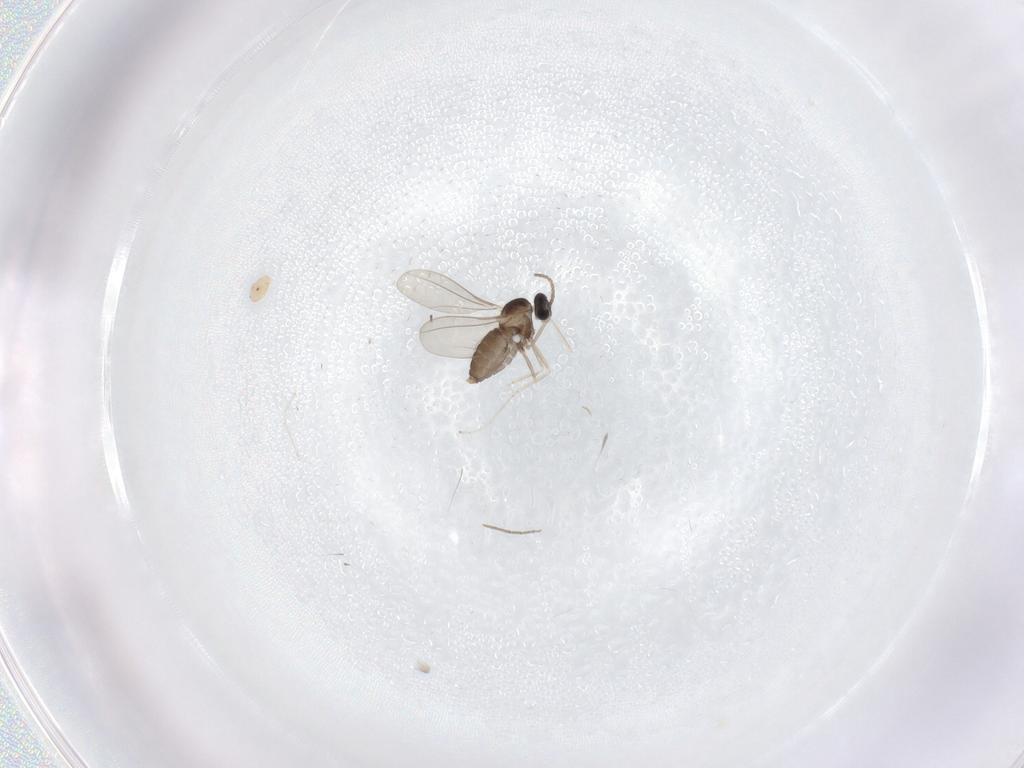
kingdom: Animalia
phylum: Arthropoda
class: Insecta
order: Diptera
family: Cecidomyiidae
